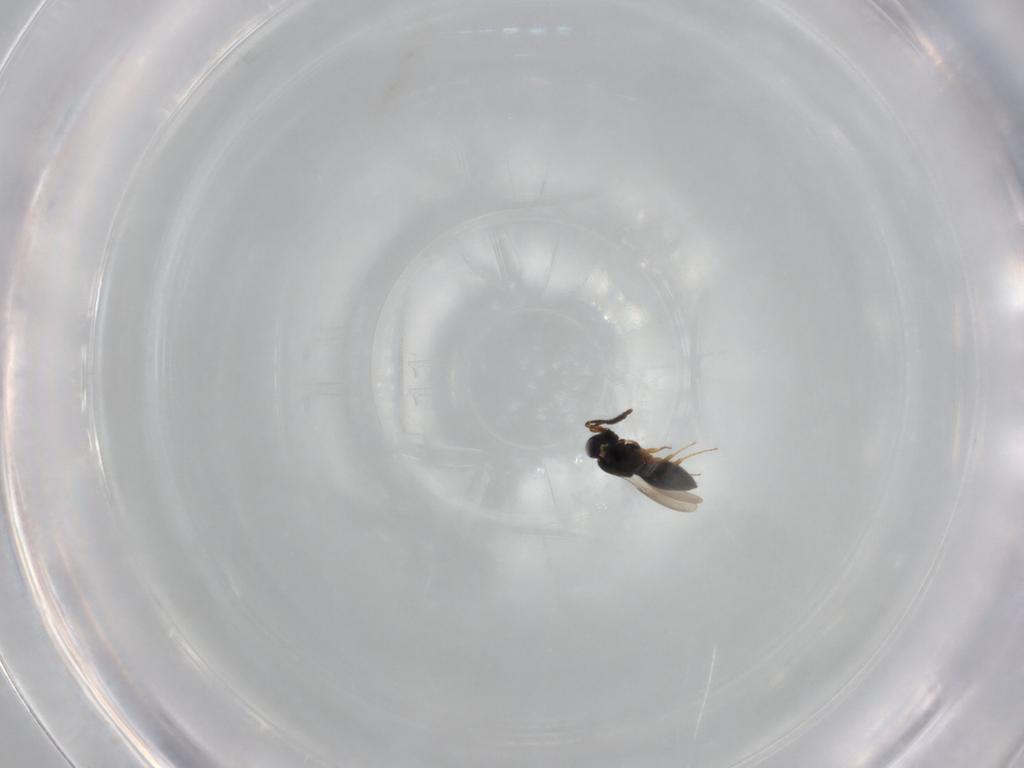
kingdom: Animalia
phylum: Arthropoda
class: Insecta
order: Hymenoptera
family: Scelionidae
